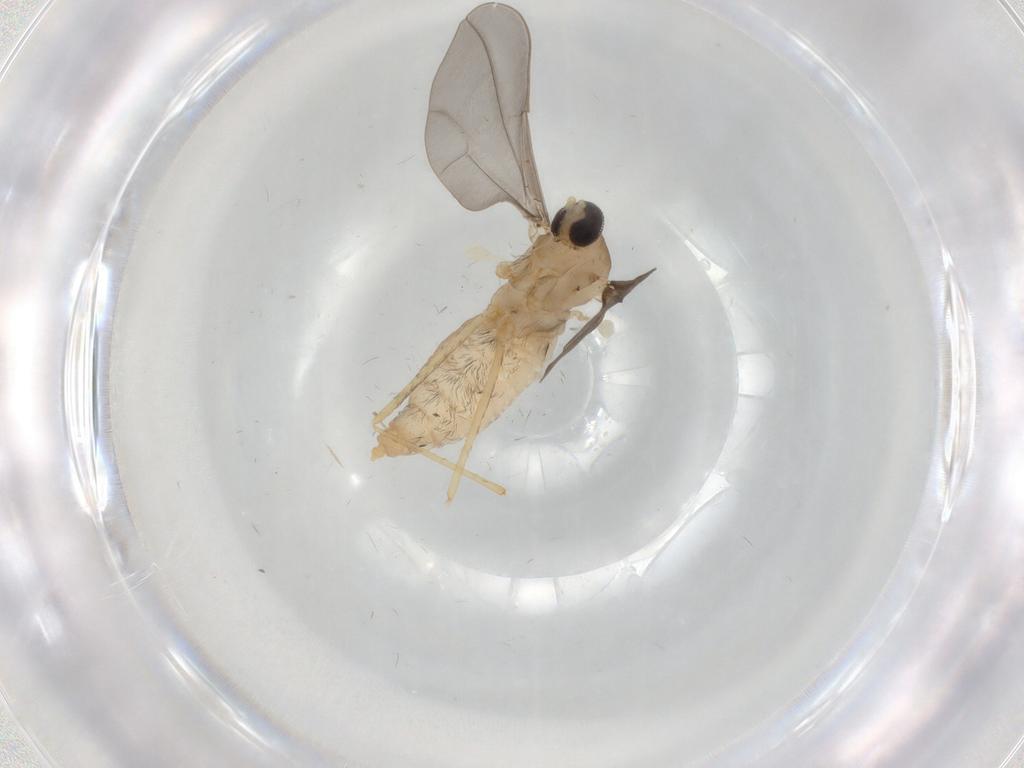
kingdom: Animalia
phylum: Arthropoda
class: Insecta
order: Diptera
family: Cecidomyiidae
